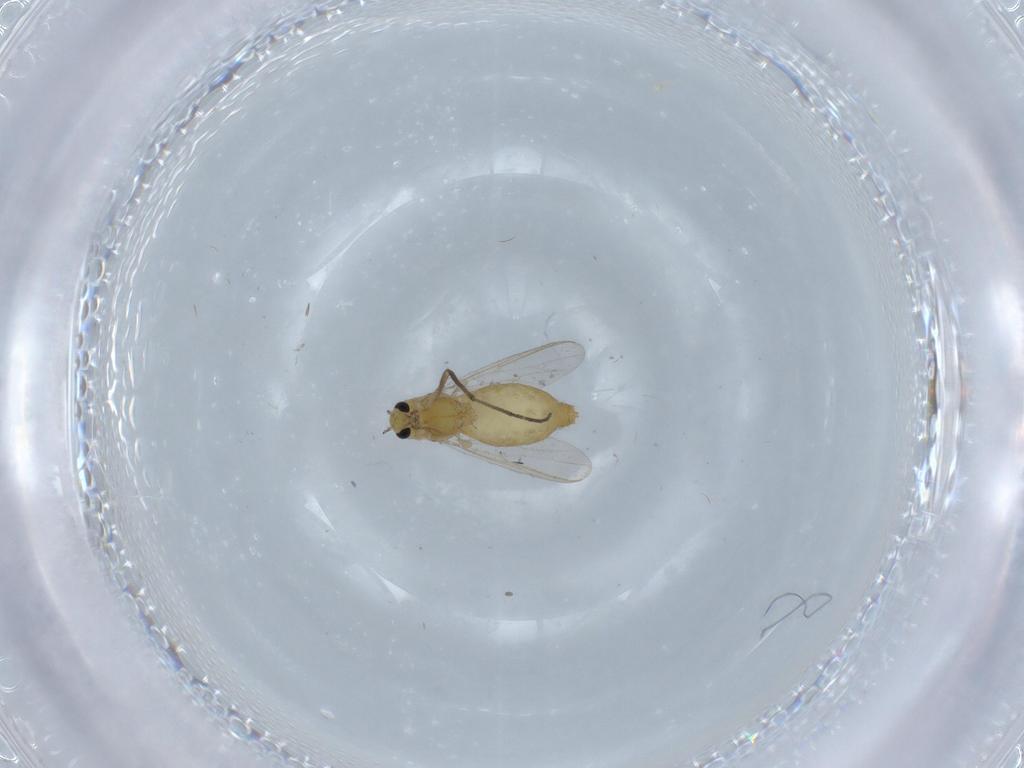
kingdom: Animalia
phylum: Arthropoda
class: Insecta
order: Diptera
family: Chironomidae
